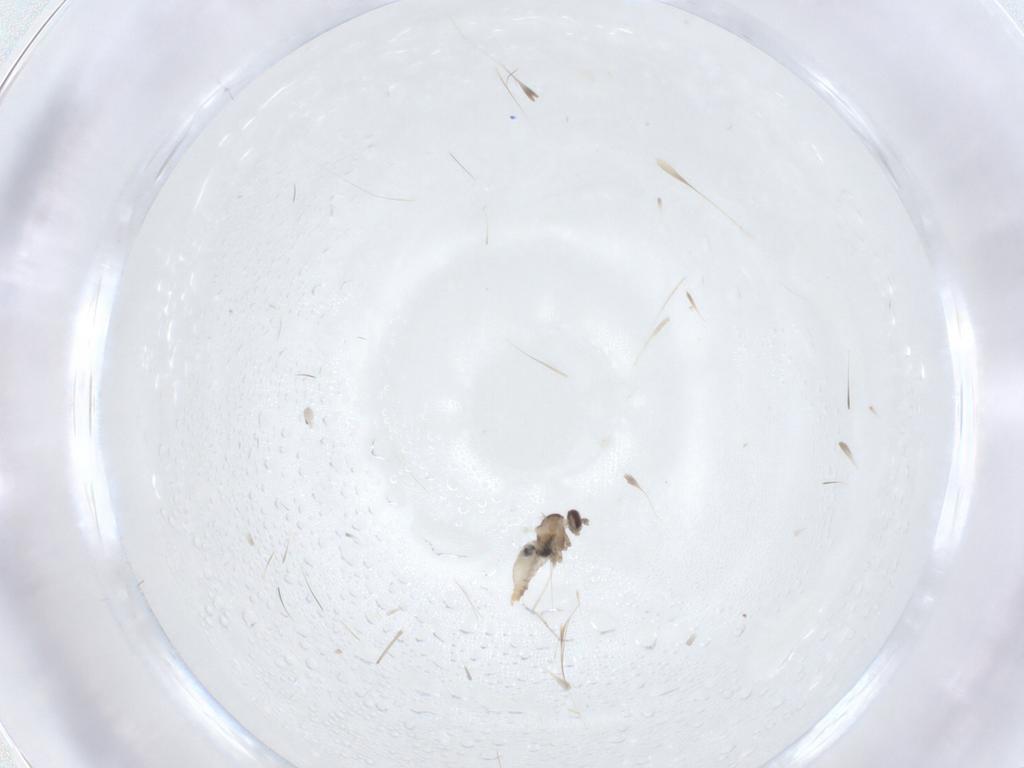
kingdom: Animalia
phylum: Arthropoda
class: Insecta
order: Diptera
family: Cecidomyiidae
